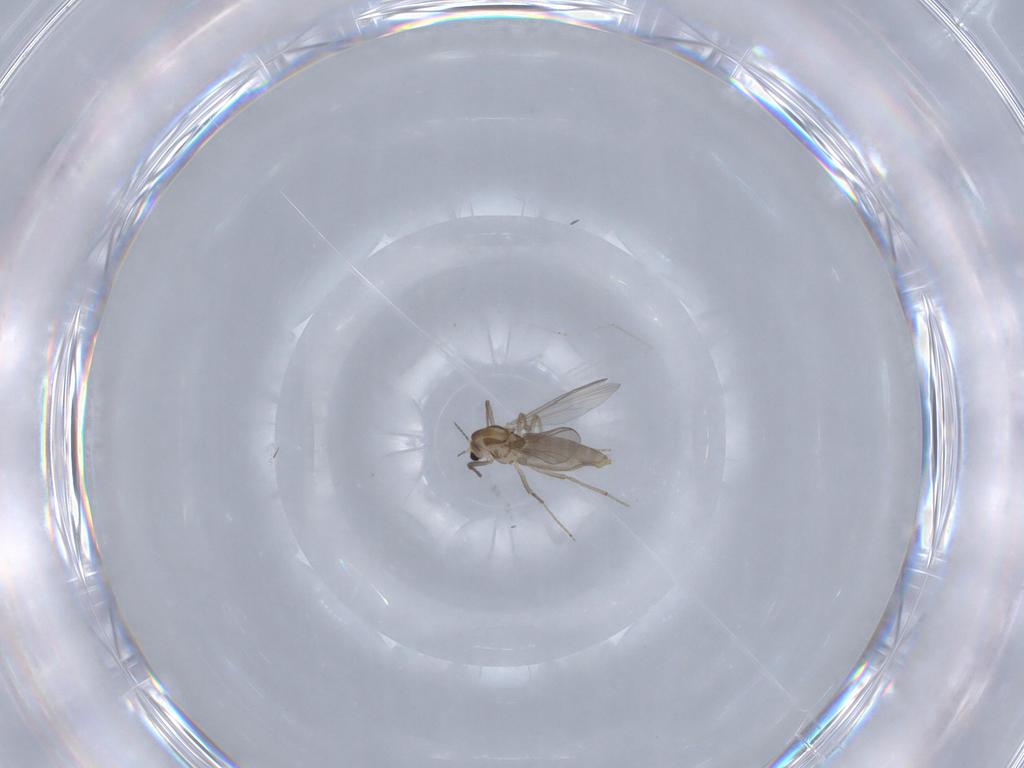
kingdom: Animalia
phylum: Arthropoda
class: Insecta
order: Diptera
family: Chironomidae
